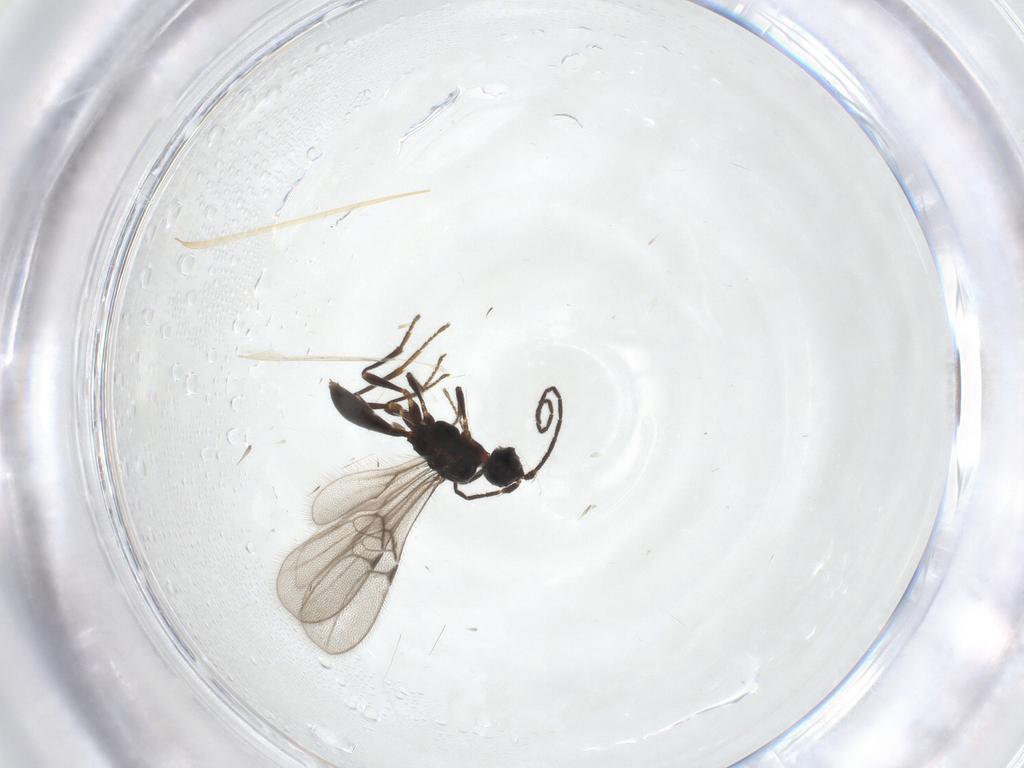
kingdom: Animalia
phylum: Arthropoda
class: Insecta
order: Hymenoptera
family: Braconidae
